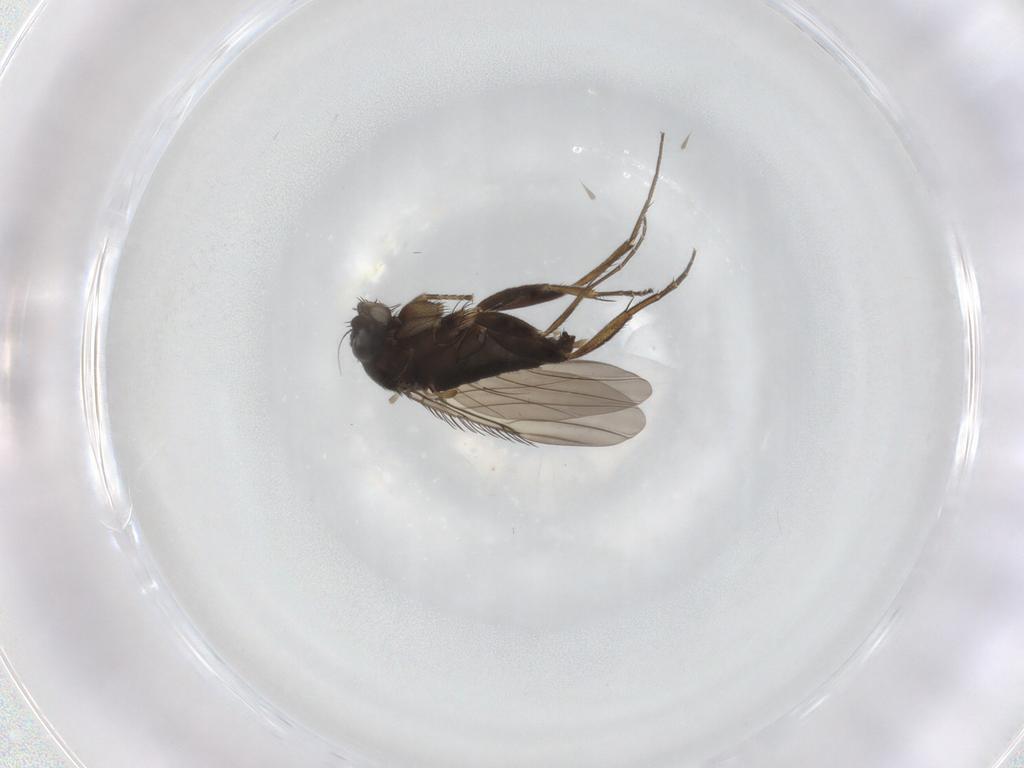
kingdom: Animalia
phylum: Arthropoda
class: Insecta
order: Diptera
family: Phoridae
